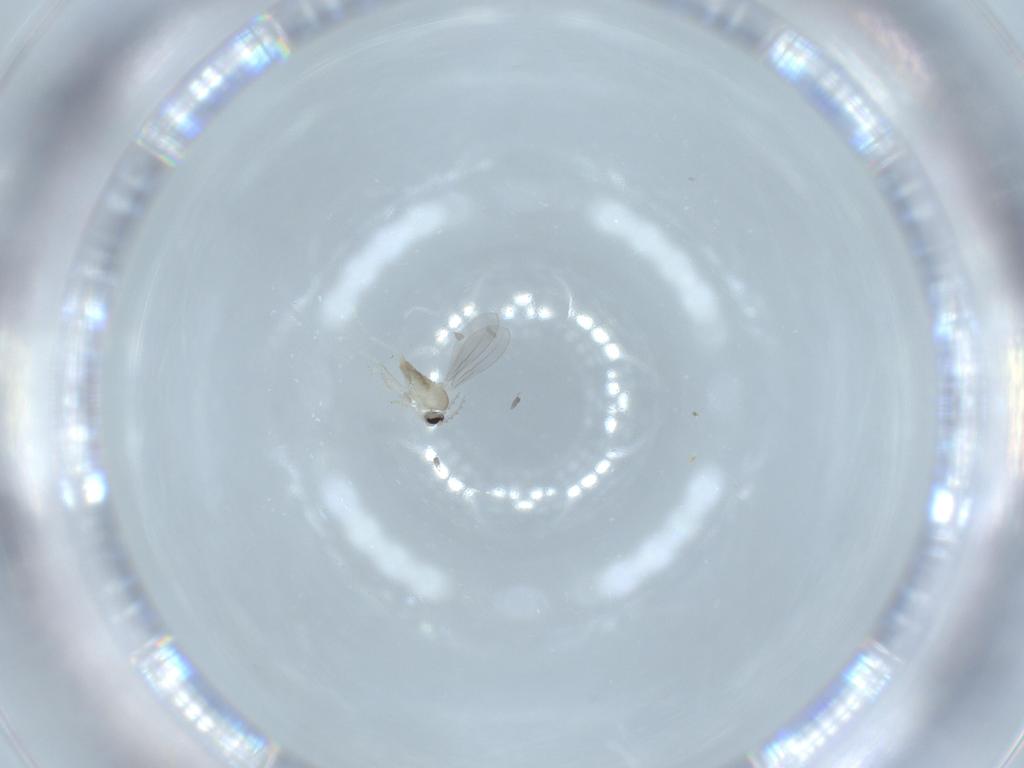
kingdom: Animalia
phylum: Arthropoda
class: Insecta
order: Diptera
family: Cecidomyiidae
